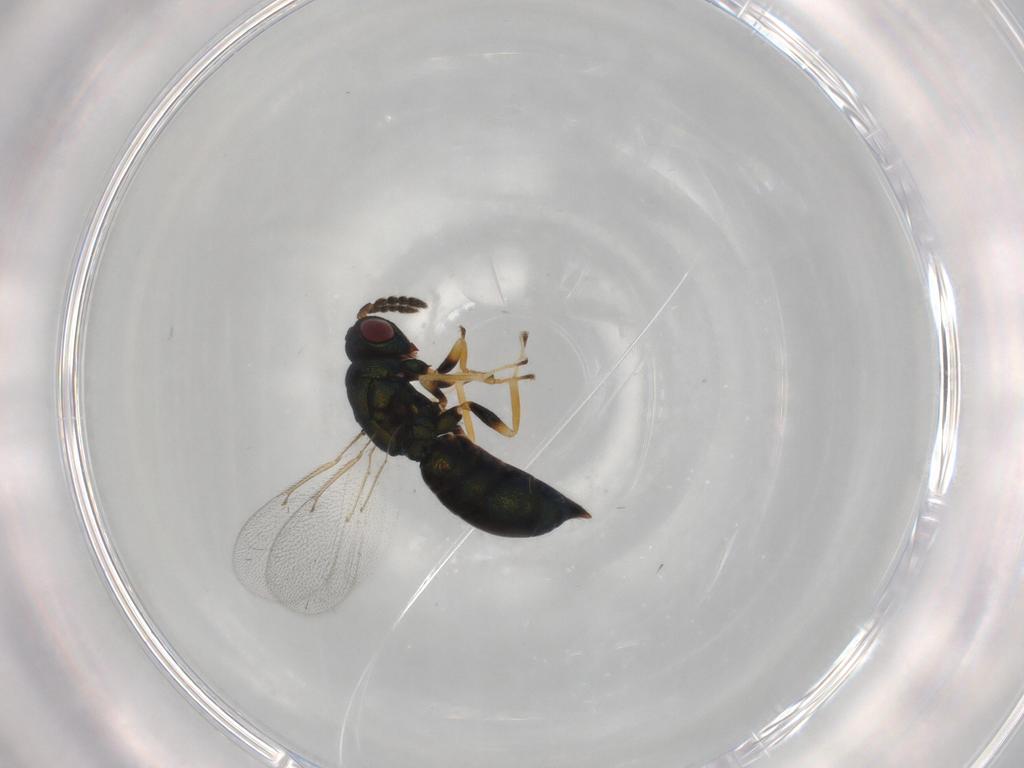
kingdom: Animalia
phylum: Arthropoda
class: Insecta
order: Hymenoptera
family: Eulophidae
